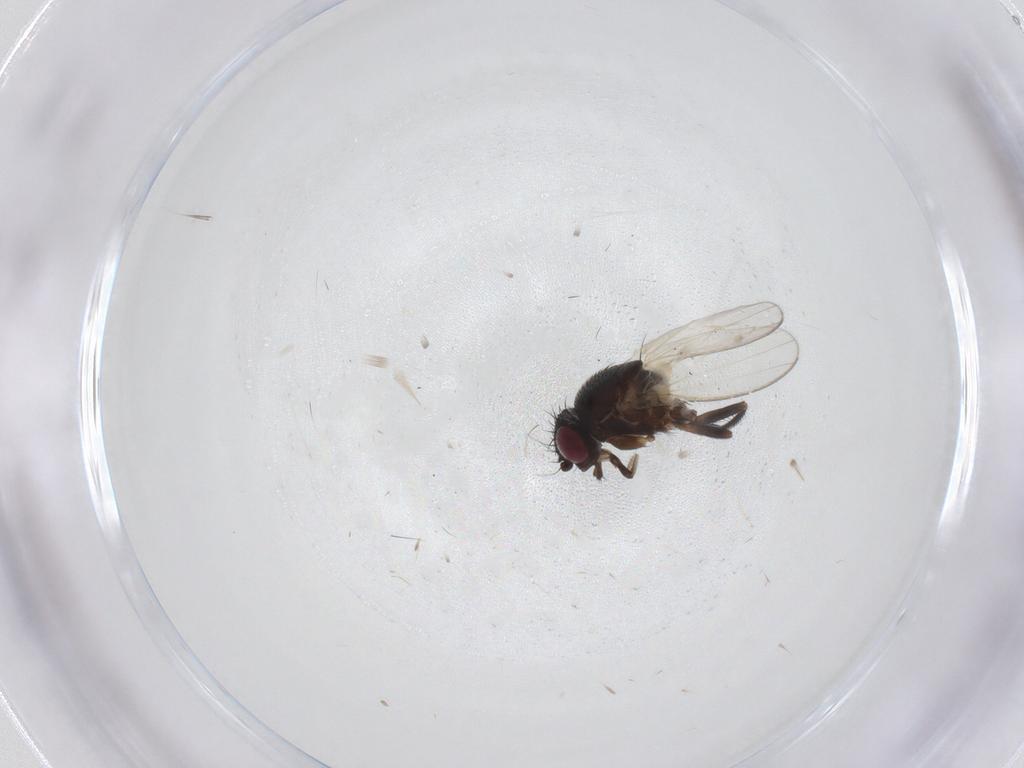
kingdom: Animalia
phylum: Arthropoda
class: Insecta
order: Diptera
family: Milichiidae
